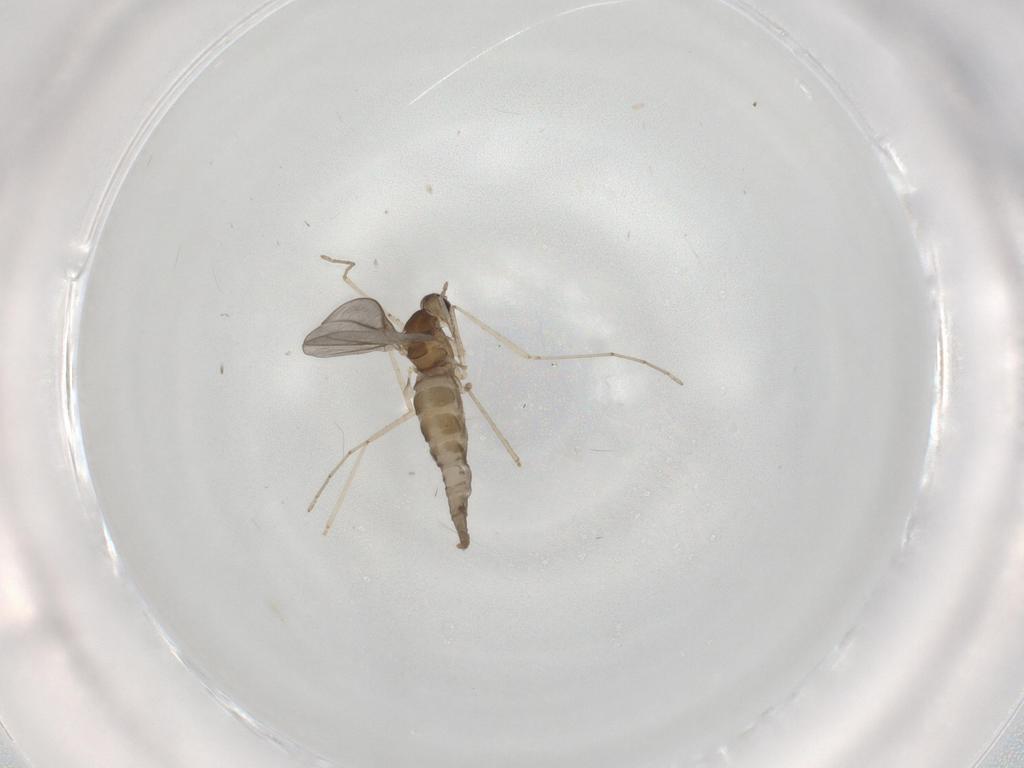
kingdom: Animalia
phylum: Arthropoda
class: Insecta
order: Diptera
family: Cecidomyiidae
